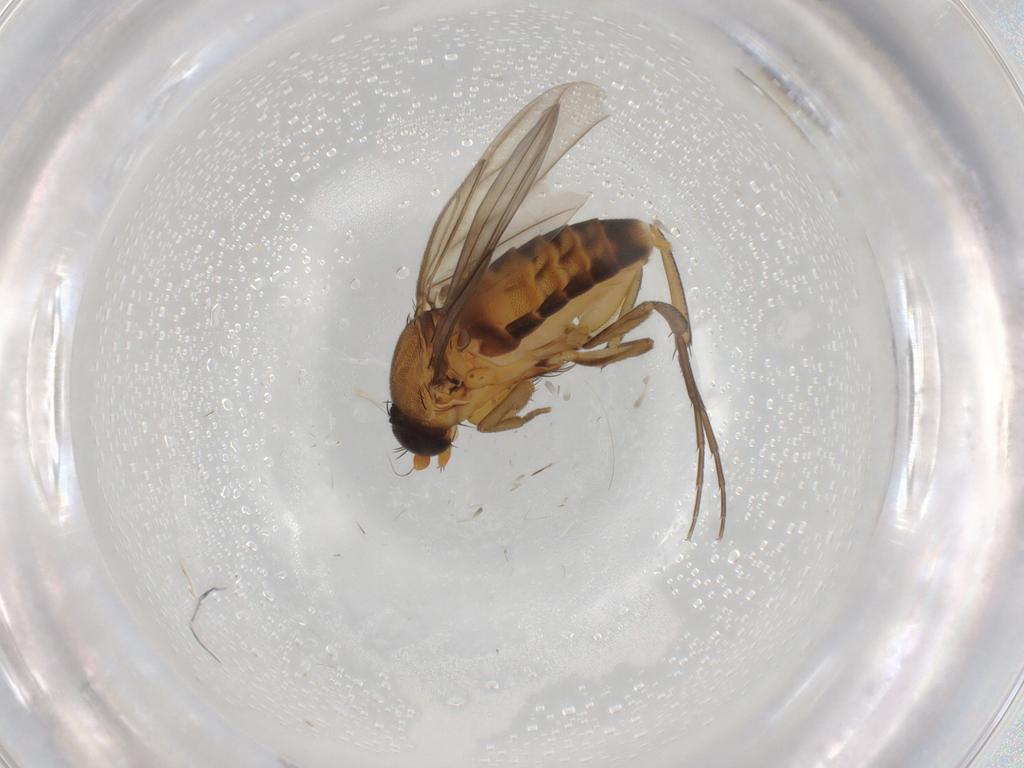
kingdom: Animalia
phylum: Arthropoda
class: Insecta
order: Diptera
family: Cecidomyiidae
